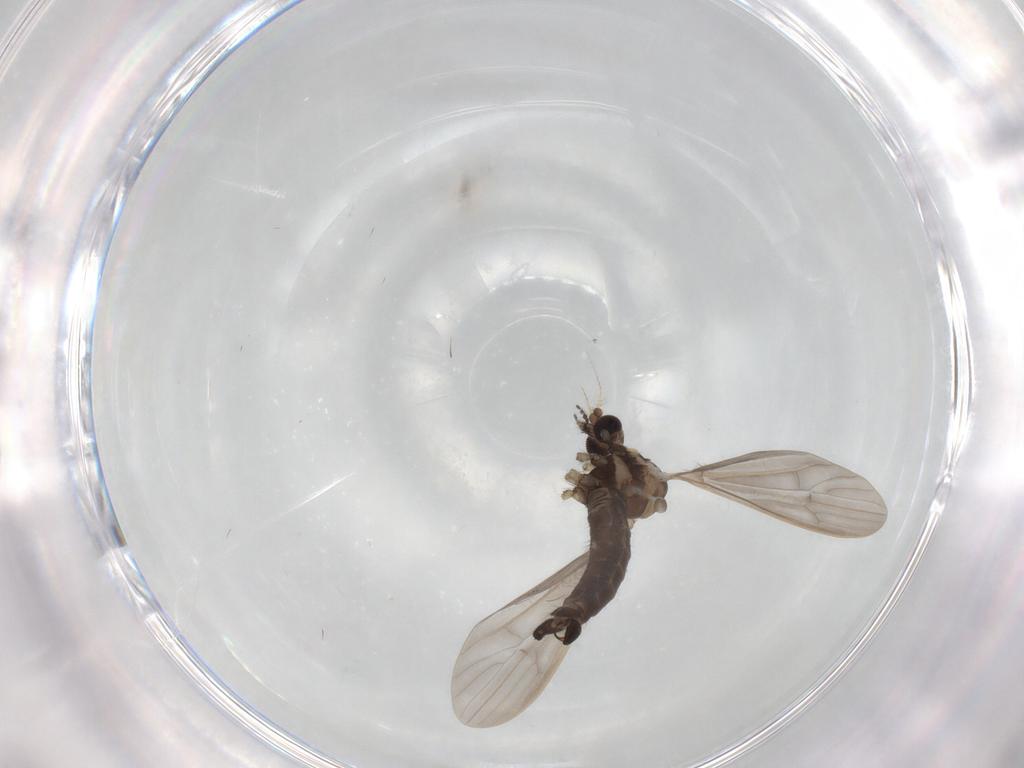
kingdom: Animalia
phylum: Arthropoda
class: Insecta
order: Diptera
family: Limoniidae
